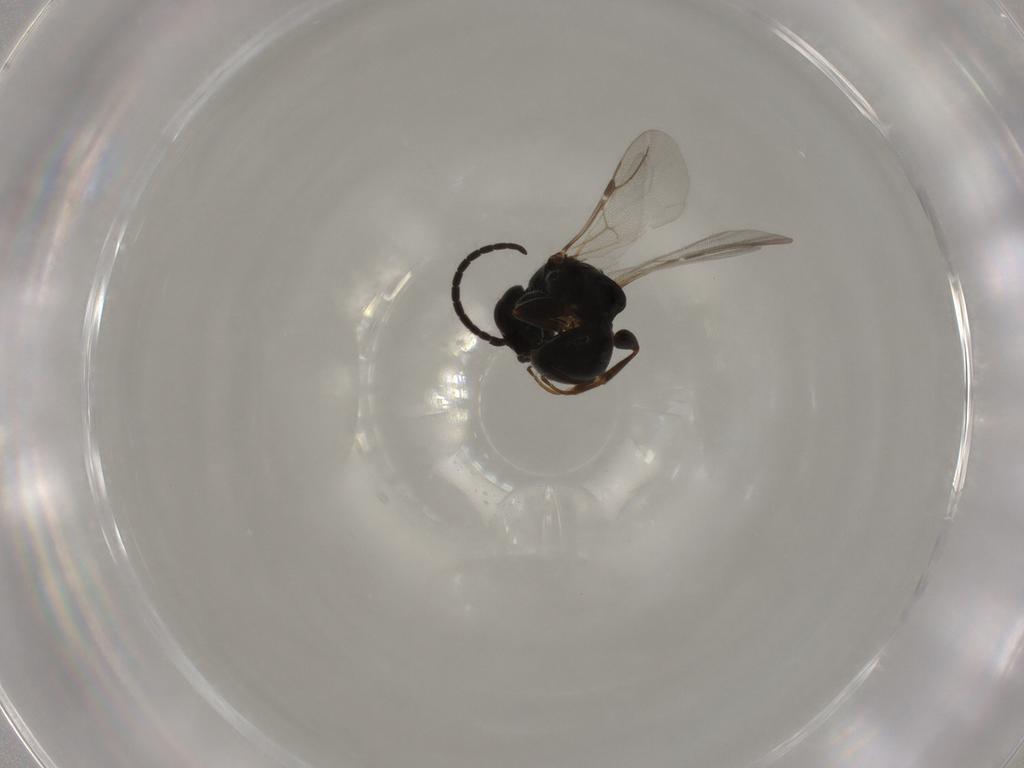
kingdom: Animalia
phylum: Arthropoda
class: Insecta
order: Hymenoptera
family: Bethylidae
